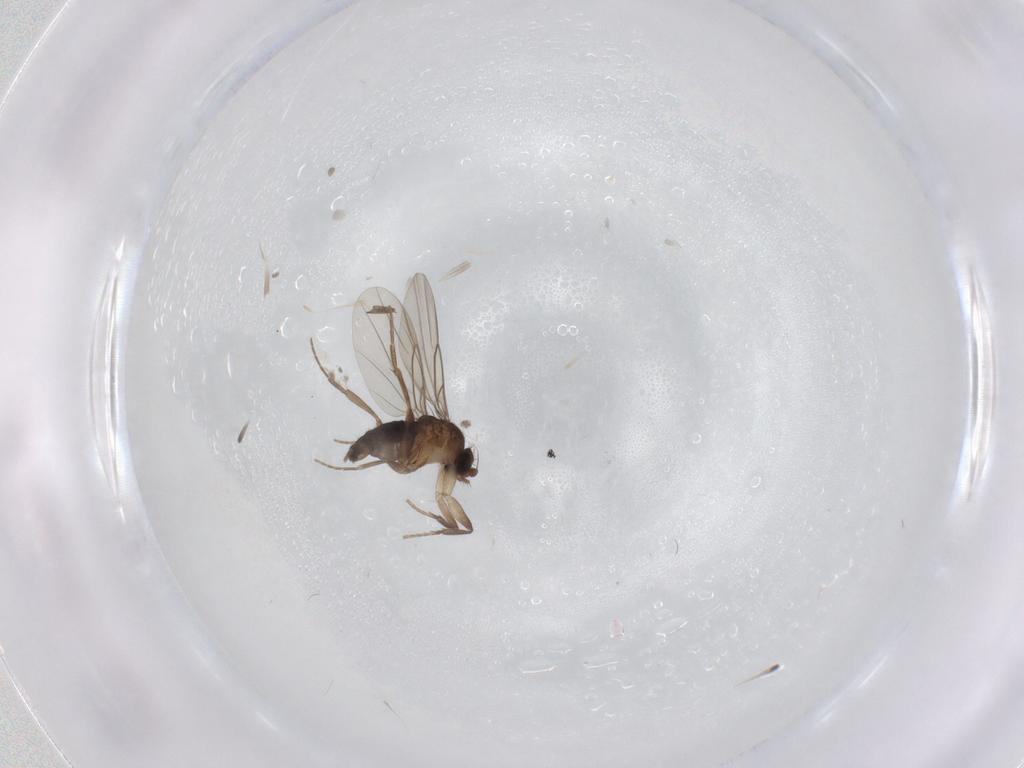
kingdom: Animalia
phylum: Arthropoda
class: Insecta
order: Diptera
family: Phoridae
